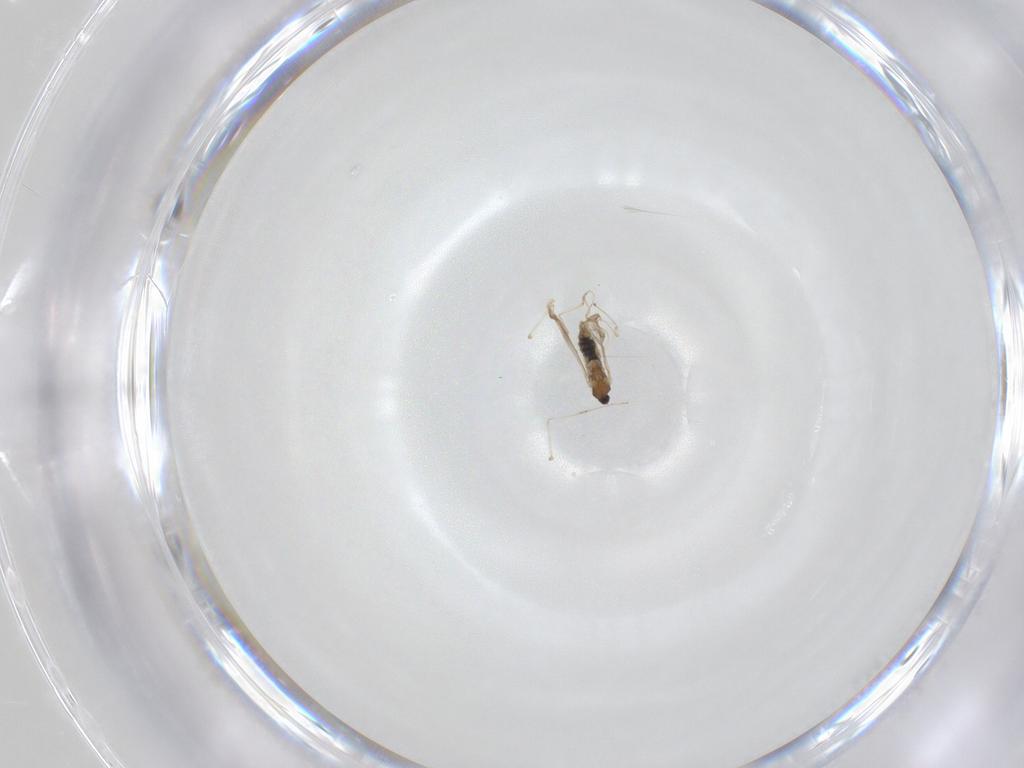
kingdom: Animalia
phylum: Arthropoda
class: Insecta
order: Diptera
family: Cecidomyiidae
